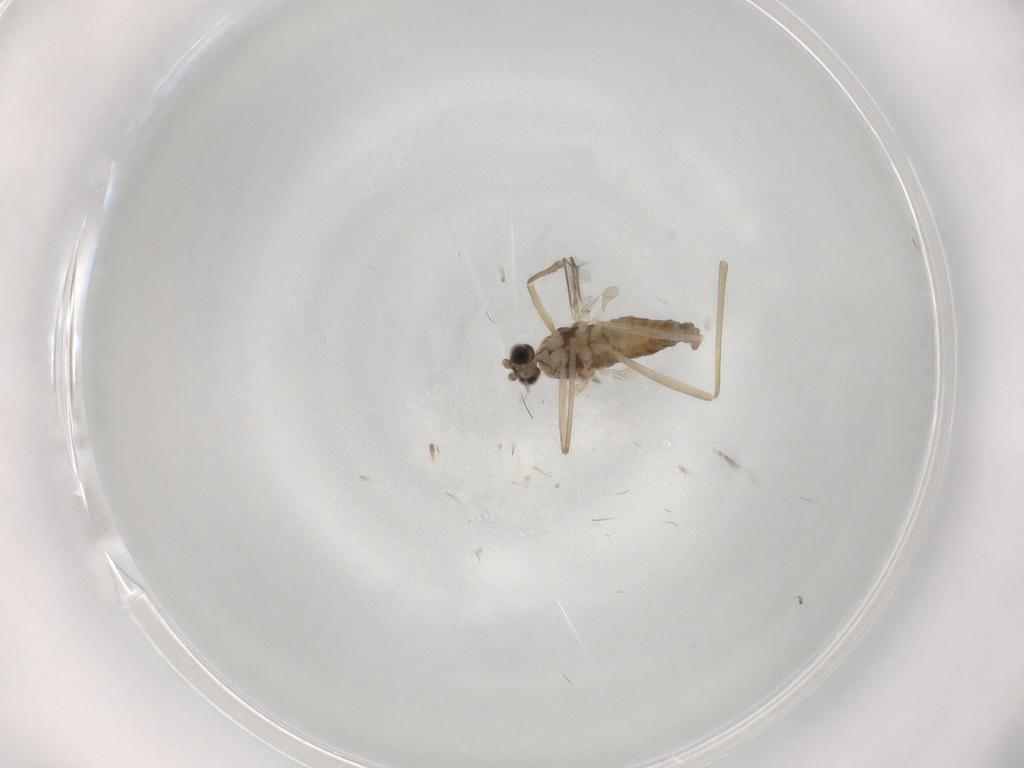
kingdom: Animalia
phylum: Arthropoda
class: Insecta
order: Diptera
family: Cecidomyiidae
